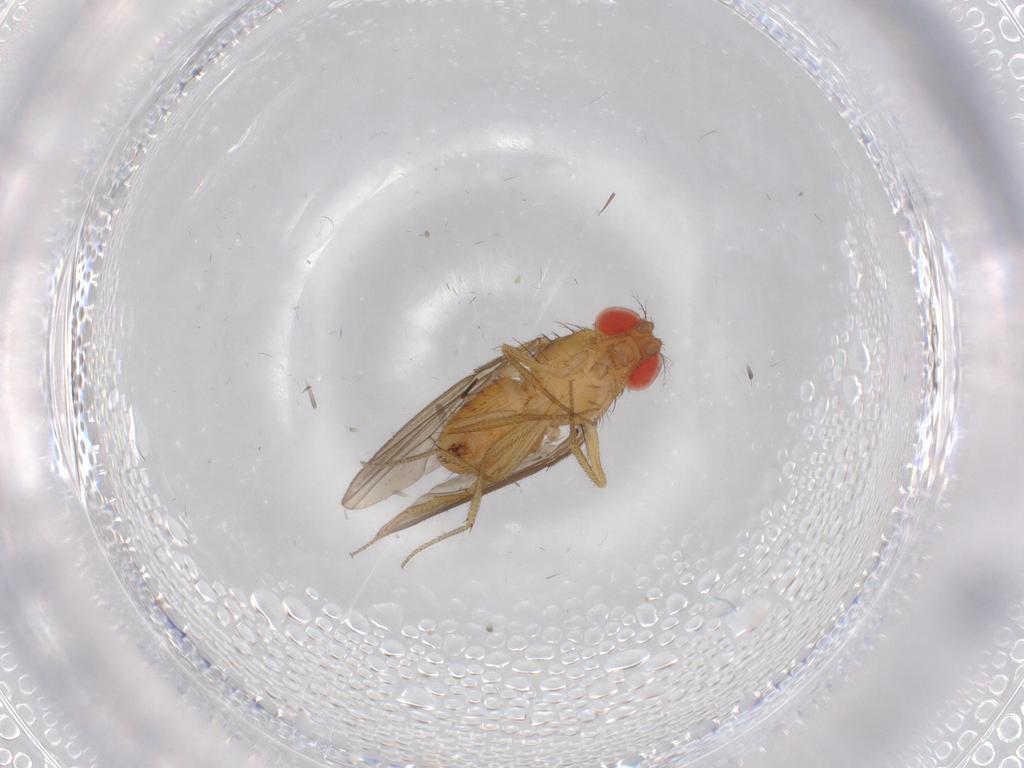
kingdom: Animalia
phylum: Arthropoda
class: Insecta
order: Diptera
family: Drosophilidae
